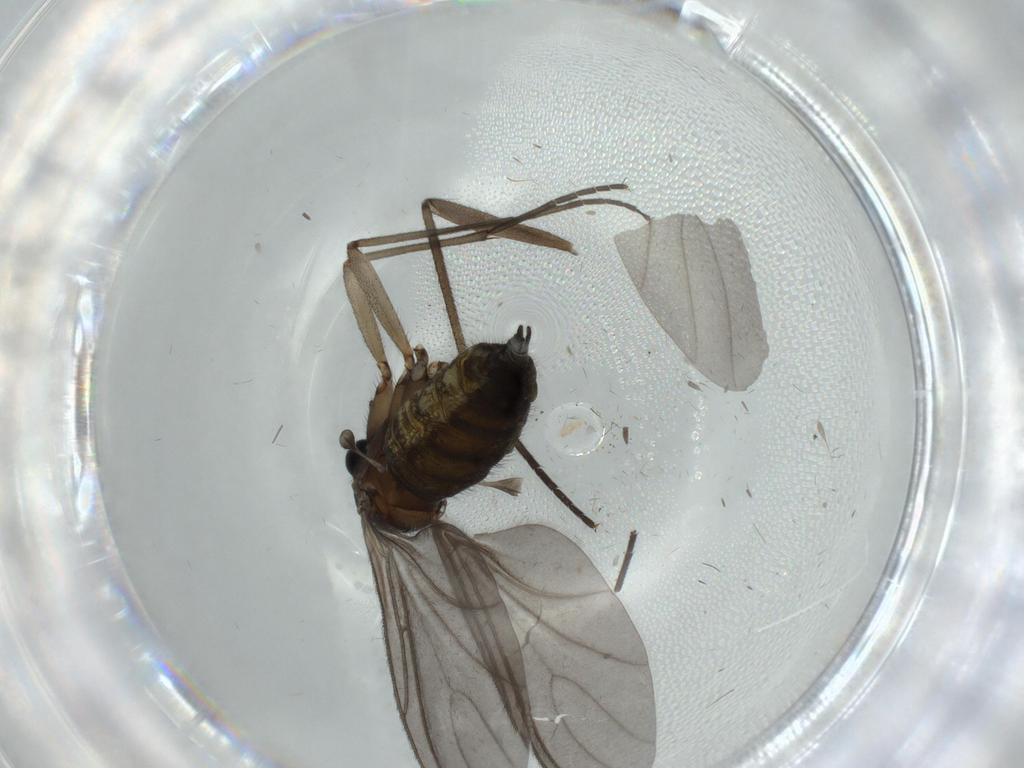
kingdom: Animalia
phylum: Arthropoda
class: Insecta
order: Diptera
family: Sciaridae
